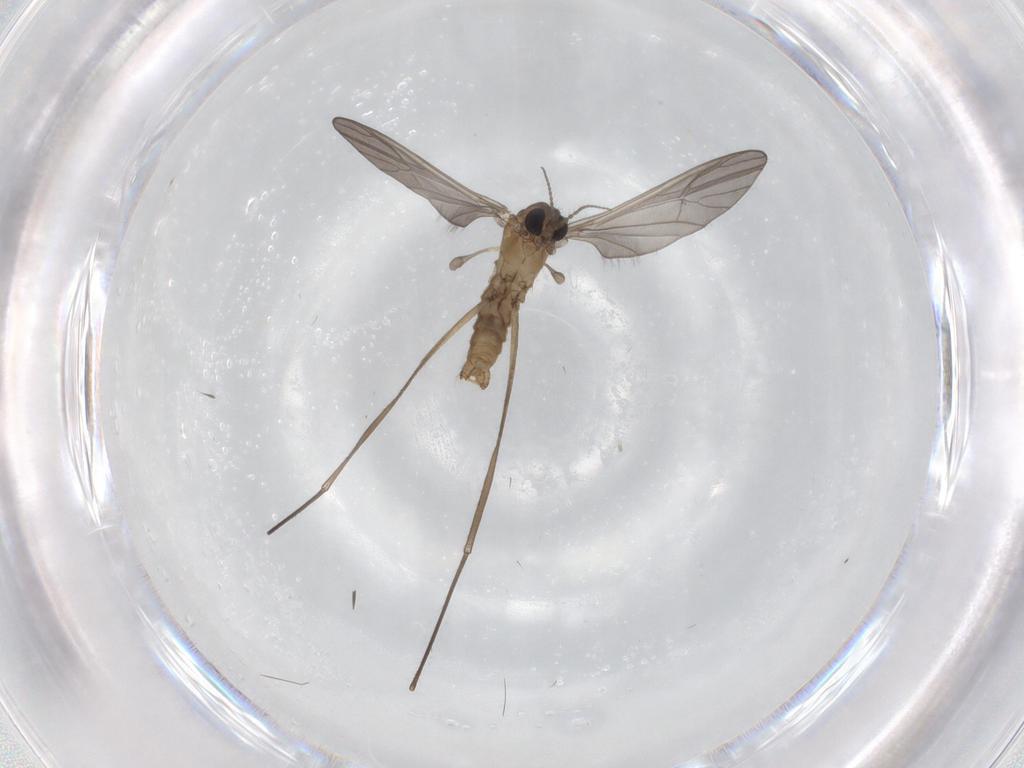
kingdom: Animalia
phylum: Arthropoda
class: Insecta
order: Diptera
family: Limoniidae
